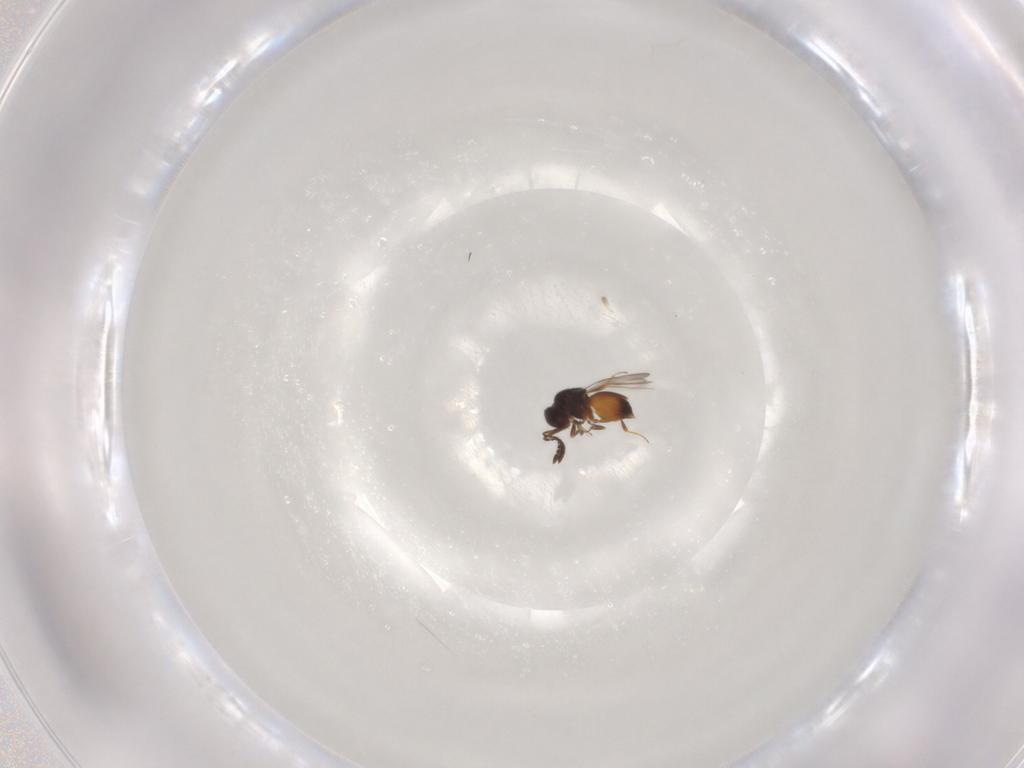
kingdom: Animalia
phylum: Arthropoda
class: Insecta
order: Hymenoptera
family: Ceraphronidae
